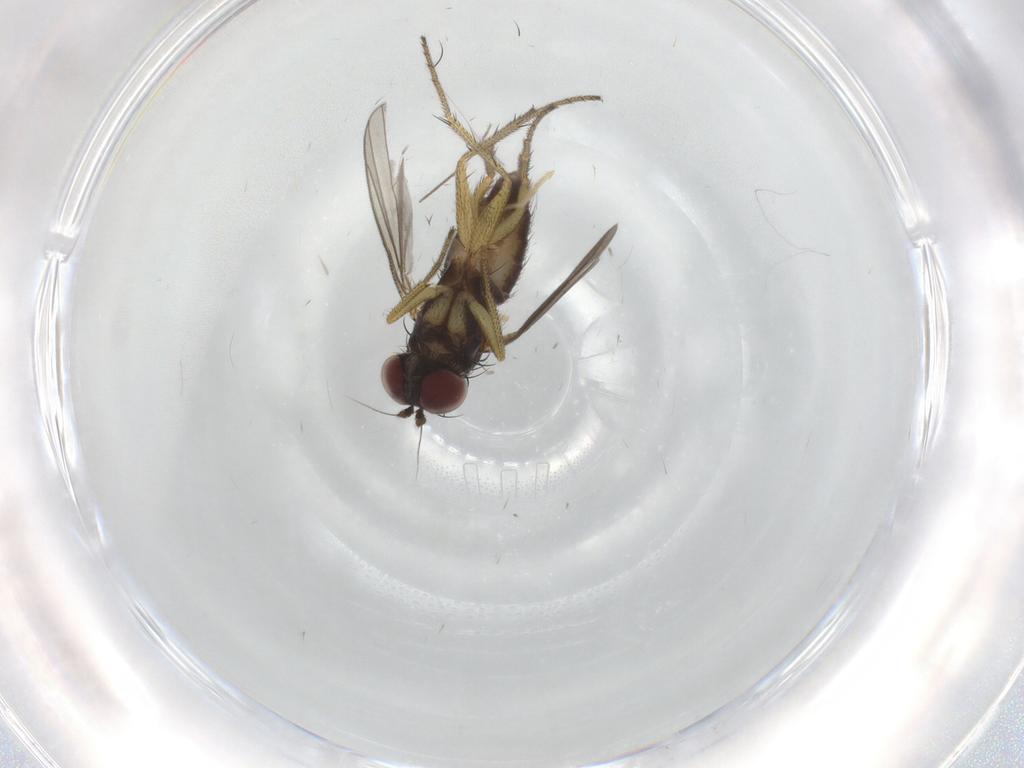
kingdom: Animalia
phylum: Arthropoda
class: Insecta
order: Diptera
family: Dolichopodidae
